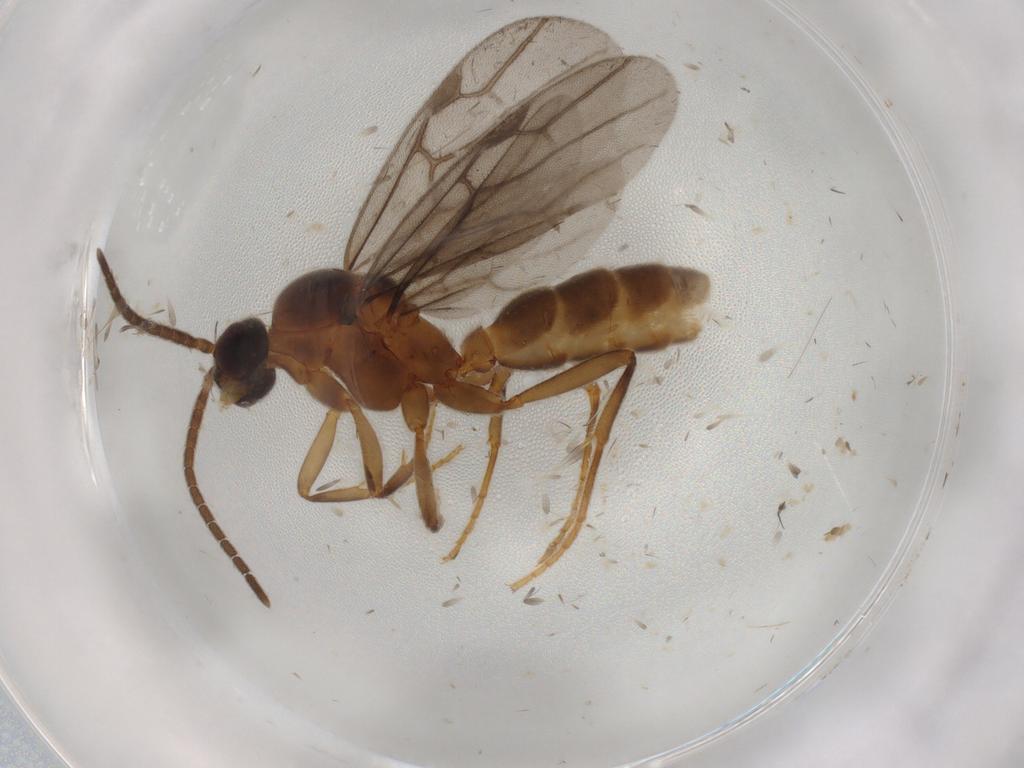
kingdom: Animalia
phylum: Arthropoda
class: Insecta
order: Hymenoptera
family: Formicidae
